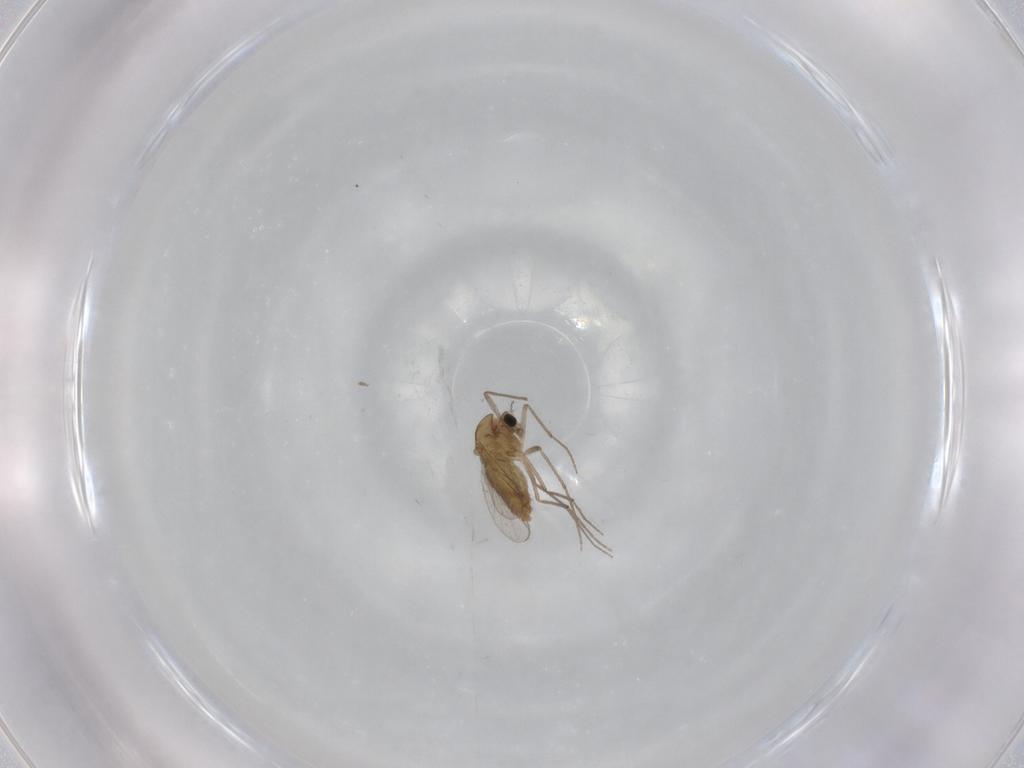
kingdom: Animalia
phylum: Arthropoda
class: Insecta
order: Diptera
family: Chironomidae
